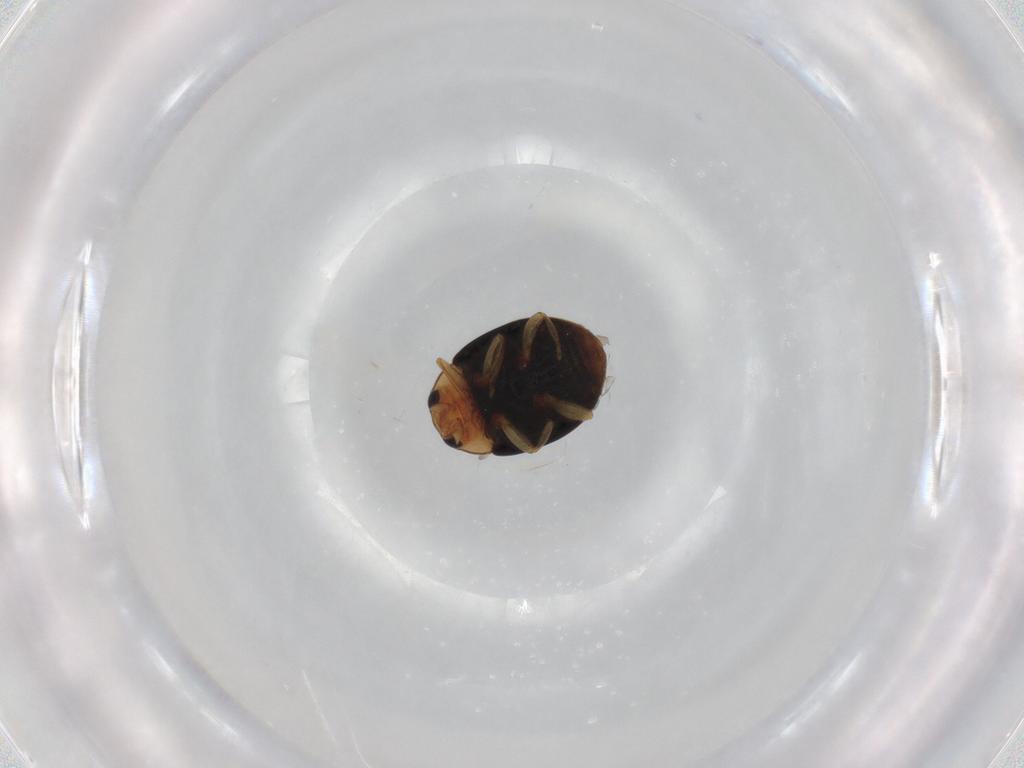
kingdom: Animalia
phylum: Arthropoda
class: Insecta
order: Coleoptera
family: Coccinellidae
